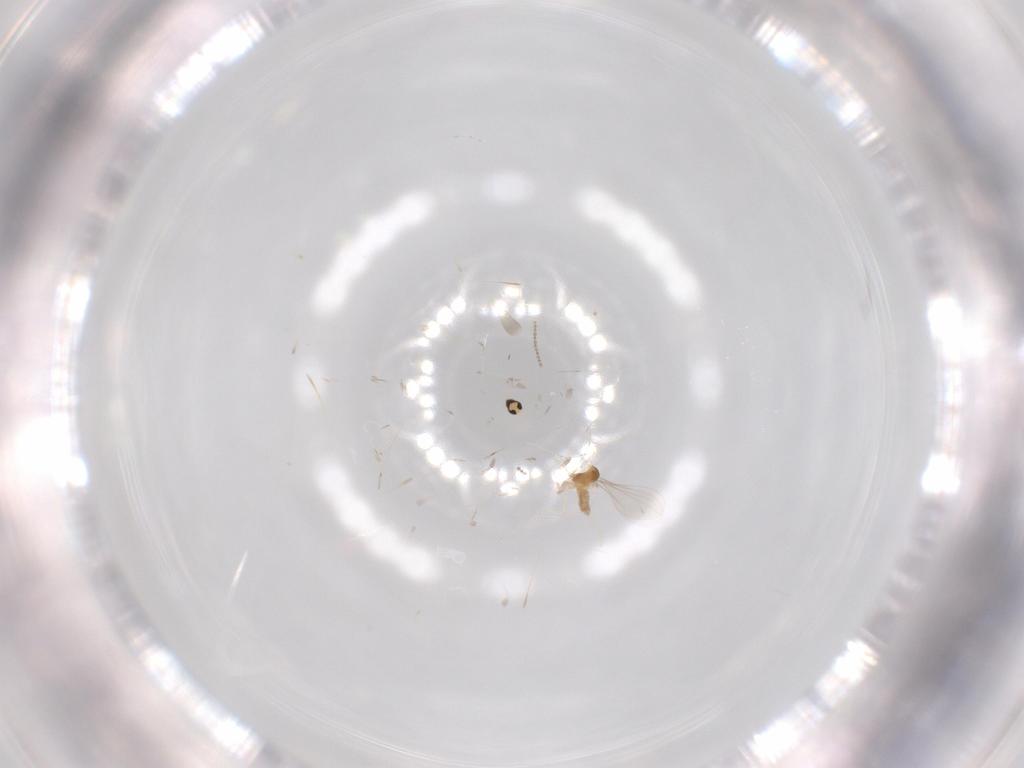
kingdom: Animalia
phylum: Arthropoda
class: Insecta
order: Diptera
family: Cecidomyiidae
